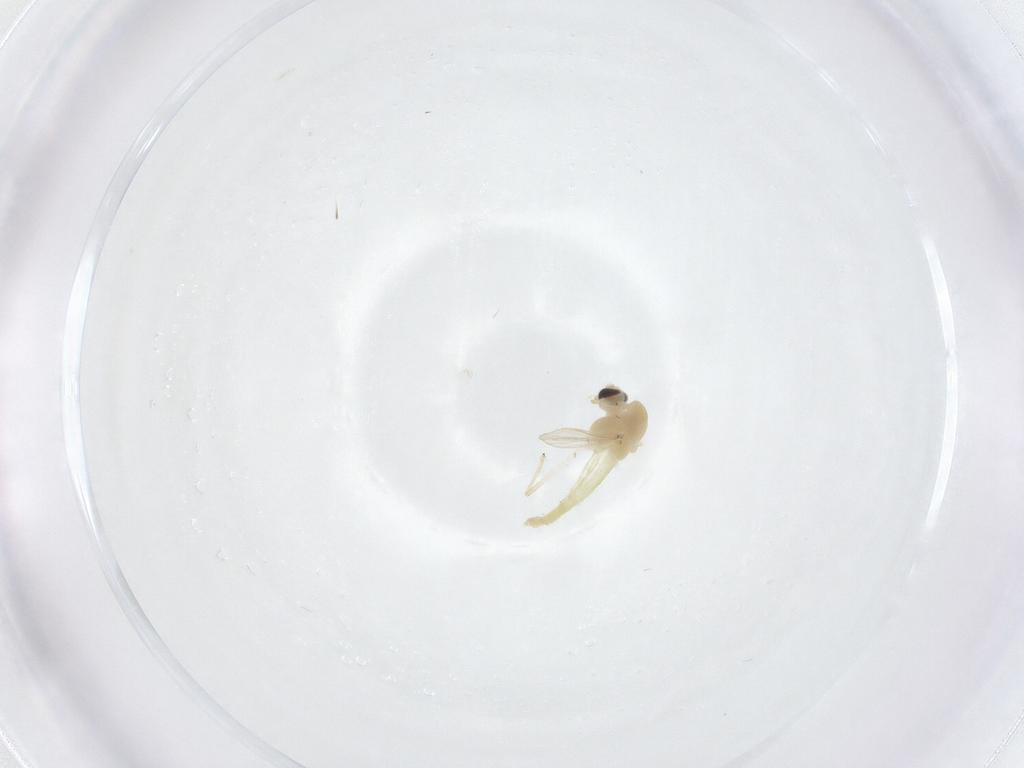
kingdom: Animalia
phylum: Arthropoda
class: Insecta
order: Diptera
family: Chironomidae
